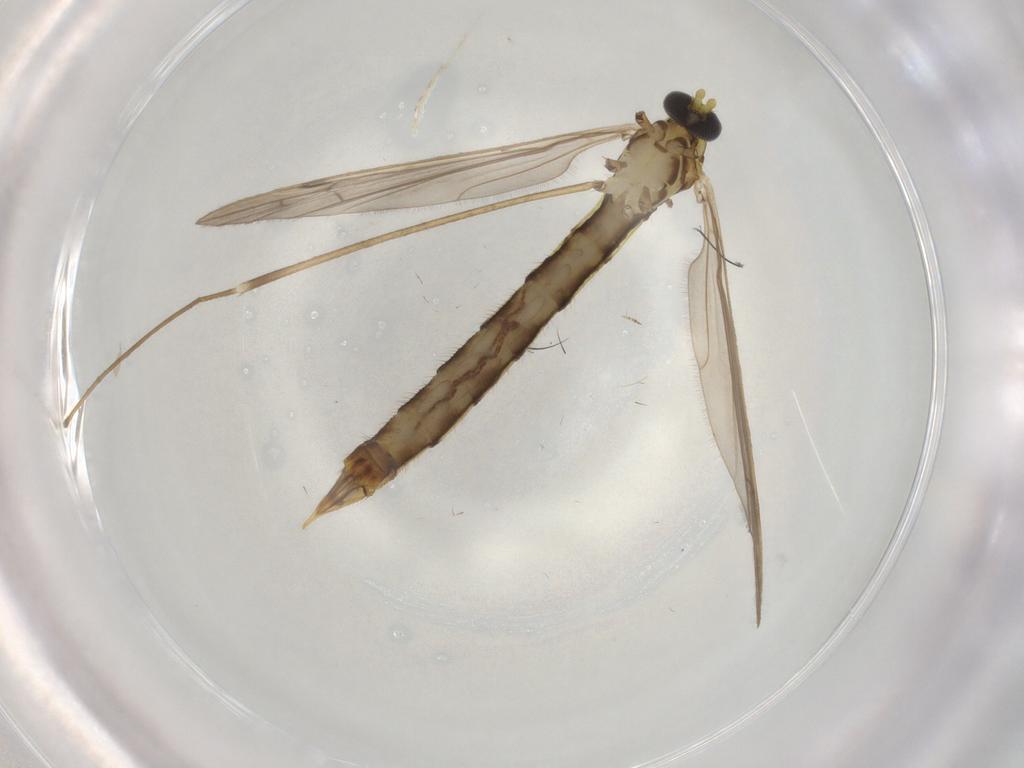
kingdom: Animalia
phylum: Arthropoda
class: Insecta
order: Diptera
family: Limoniidae
